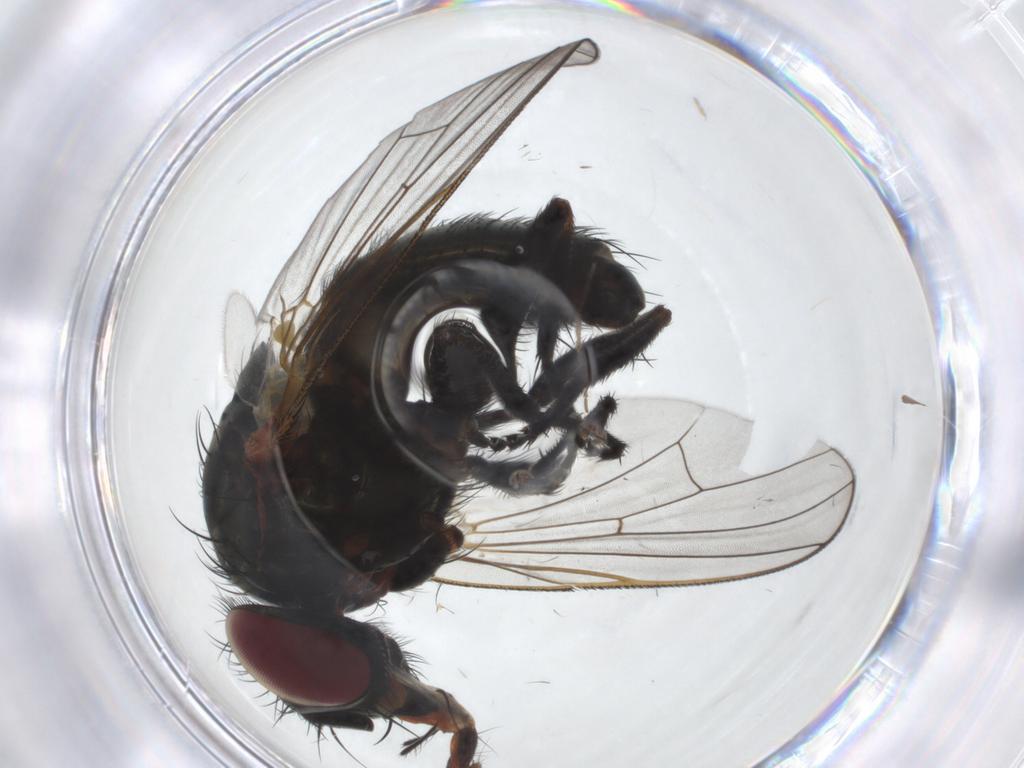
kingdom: Animalia
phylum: Arthropoda
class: Insecta
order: Diptera
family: Fannia
